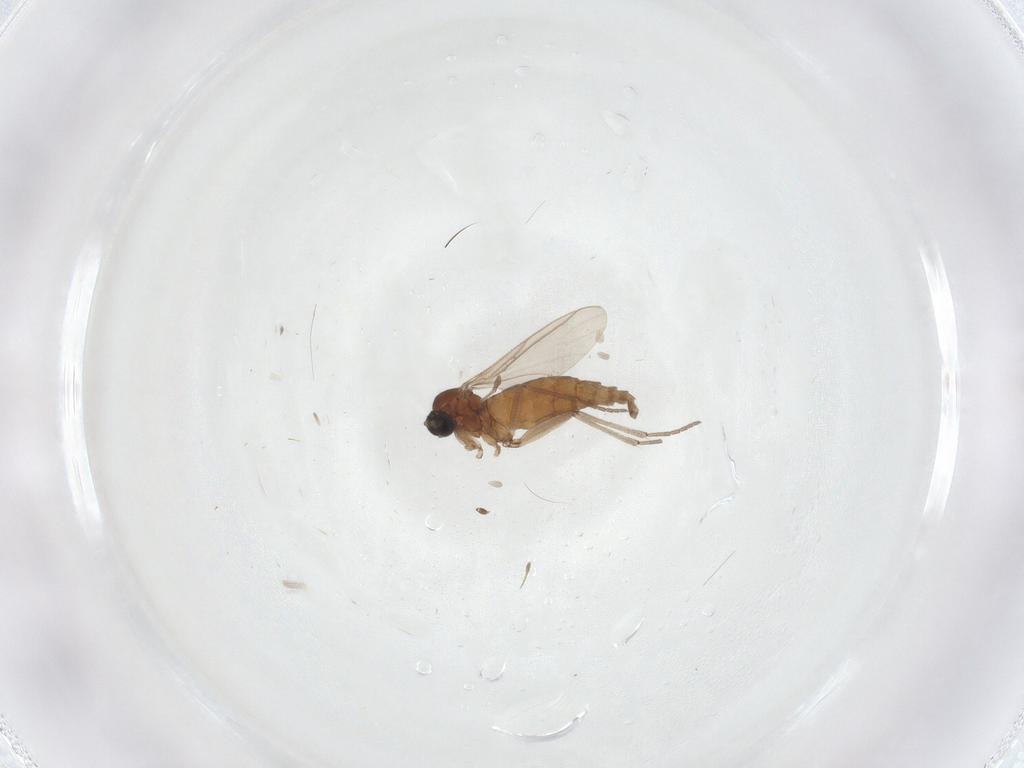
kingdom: Animalia
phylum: Arthropoda
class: Insecta
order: Diptera
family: Cecidomyiidae
